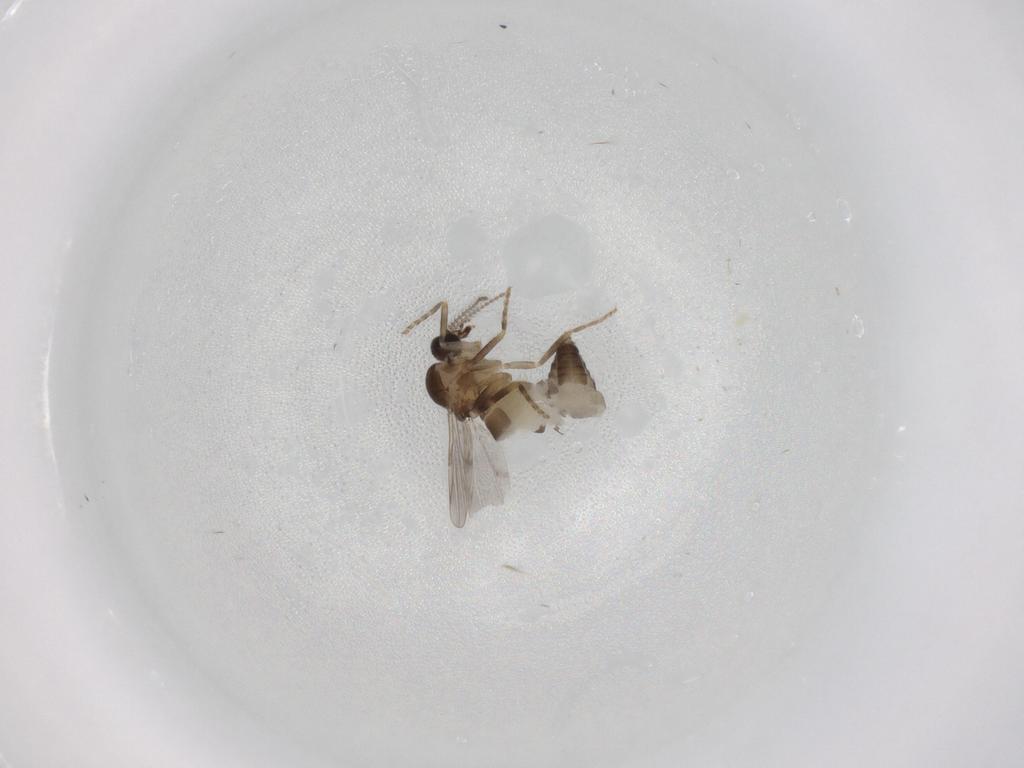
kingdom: Animalia
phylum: Arthropoda
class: Insecta
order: Diptera
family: Ceratopogonidae
